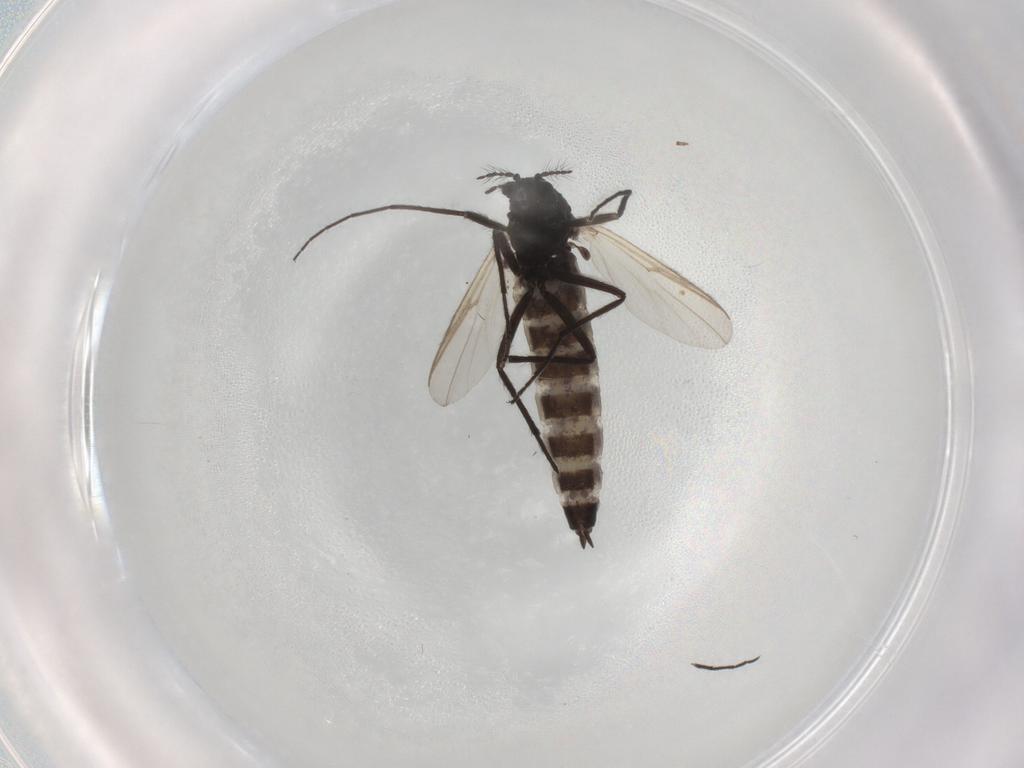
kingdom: Animalia
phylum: Arthropoda
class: Insecta
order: Diptera
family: Chironomidae
